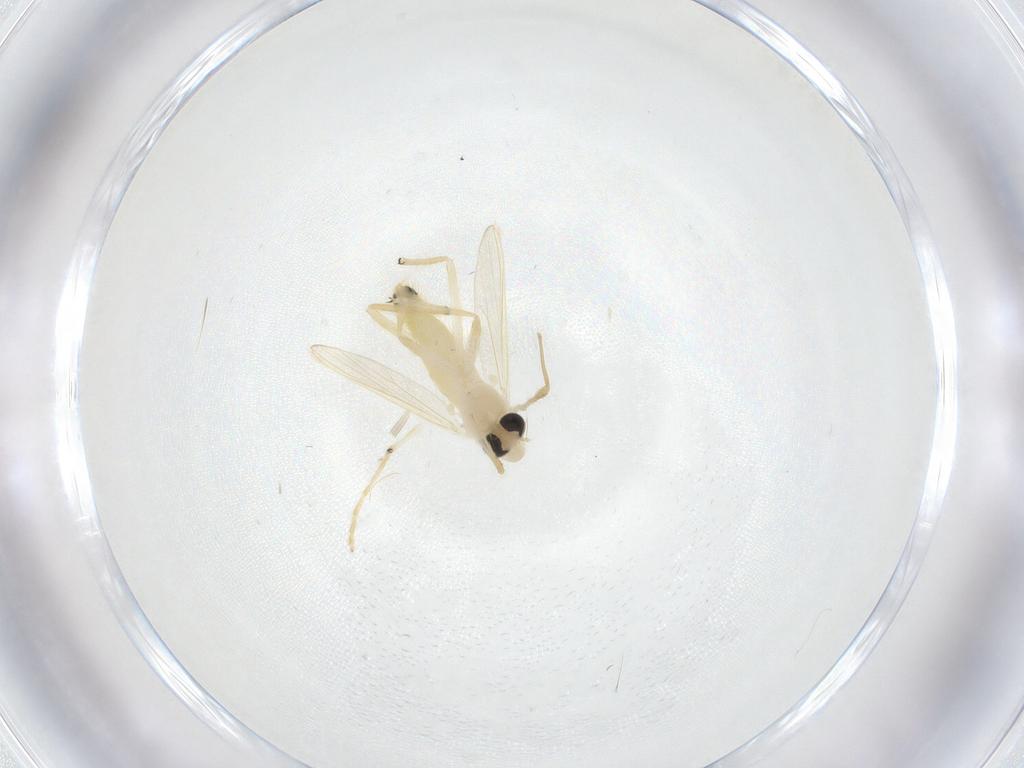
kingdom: Animalia
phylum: Arthropoda
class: Insecta
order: Diptera
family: Chironomidae
